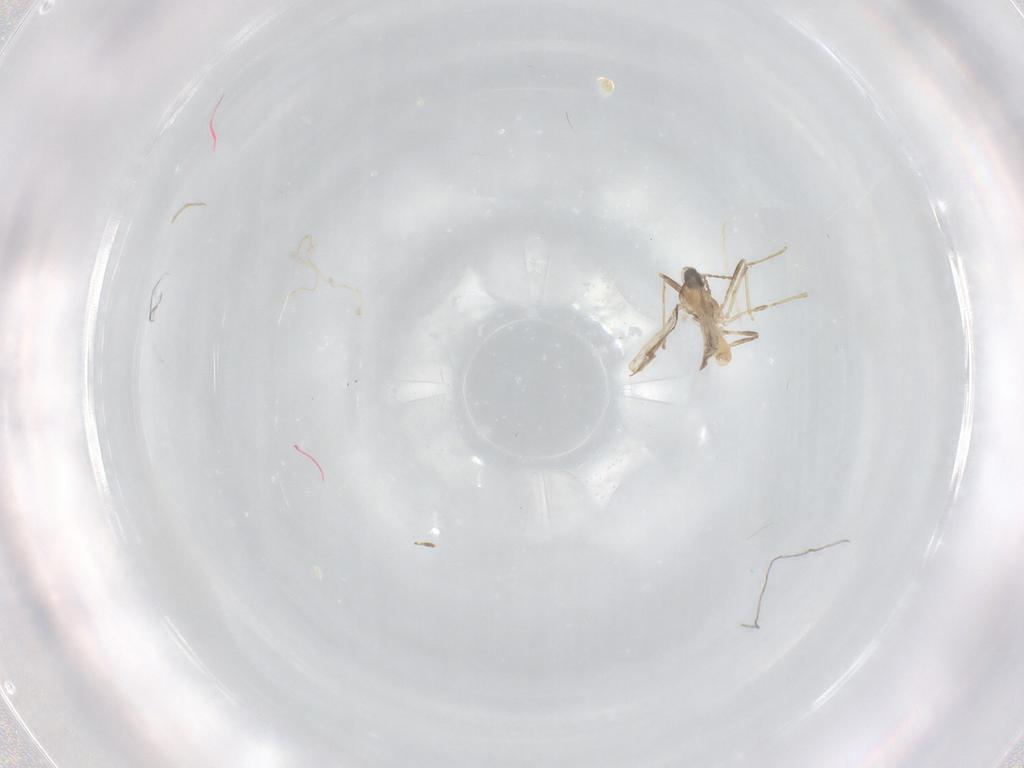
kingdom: Animalia
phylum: Arthropoda
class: Insecta
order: Diptera
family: Cecidomyiidae
